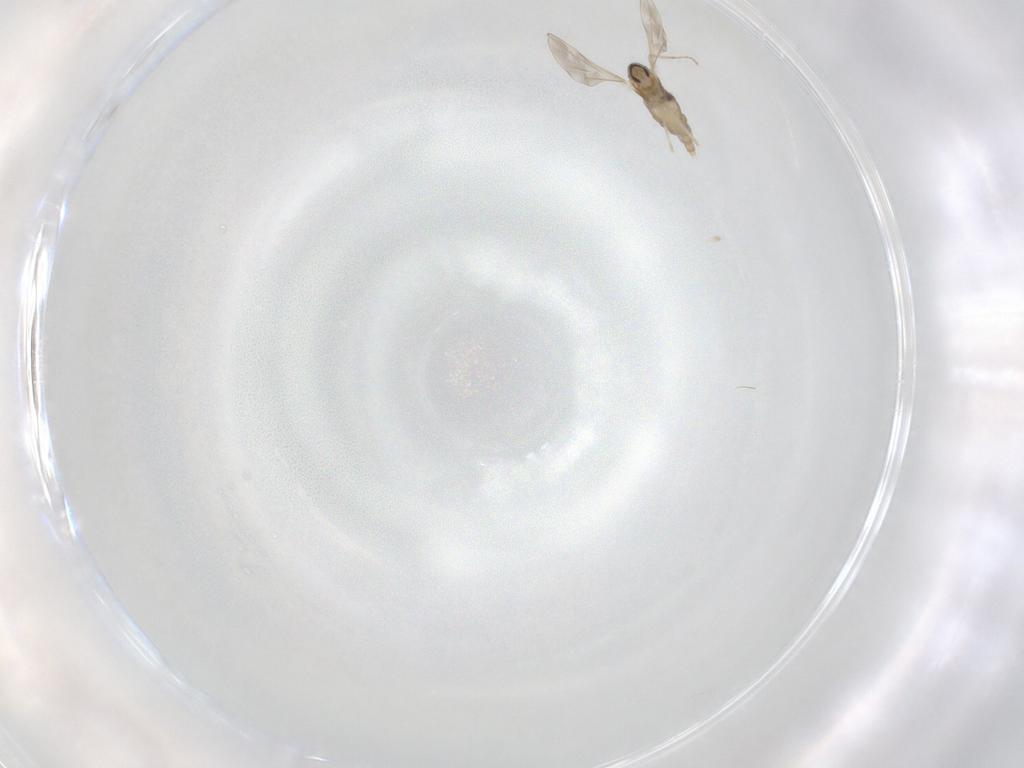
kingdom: Animalia
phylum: Arthropoda
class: Insecta
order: Diptera
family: Cecidomyiidae
